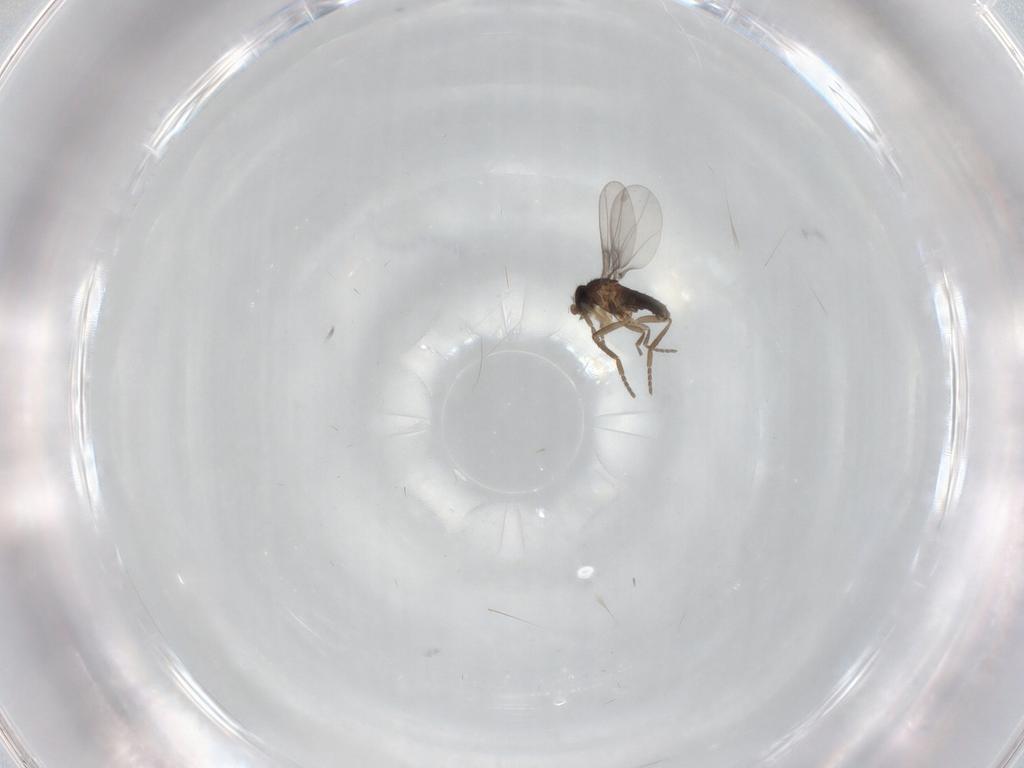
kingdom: Animalia
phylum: Arthropoda
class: Insecta
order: Diptera
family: Phoridae
